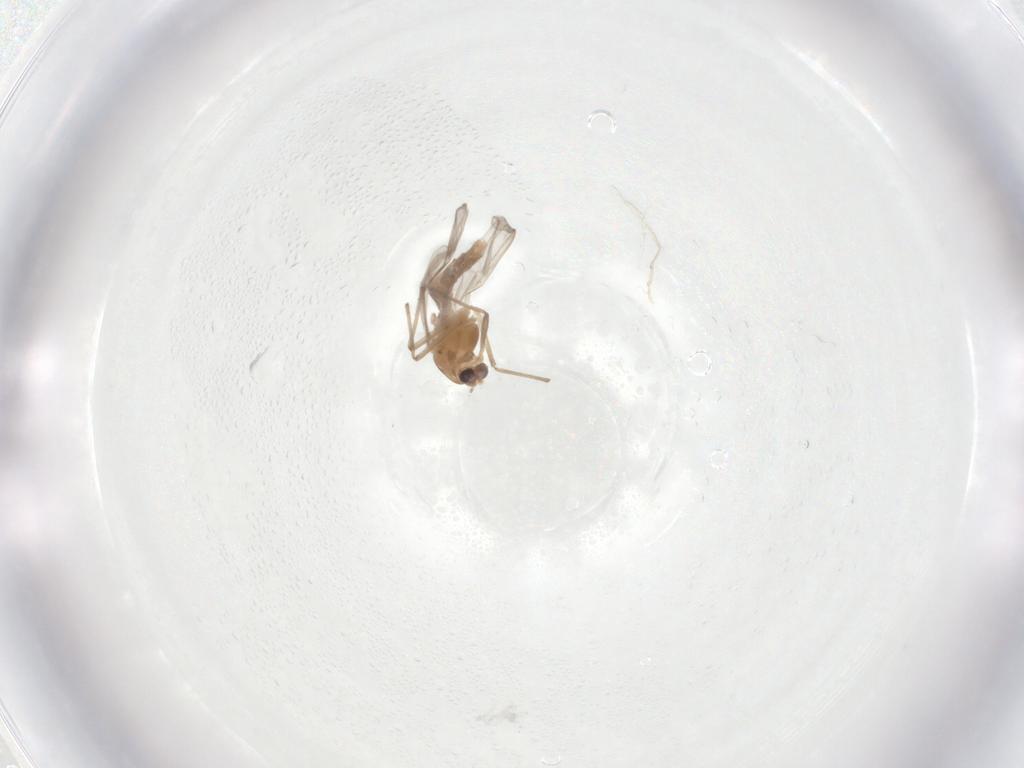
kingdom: Animalia
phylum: Arthropoda
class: Insecta
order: Diptera
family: Chironomidae
